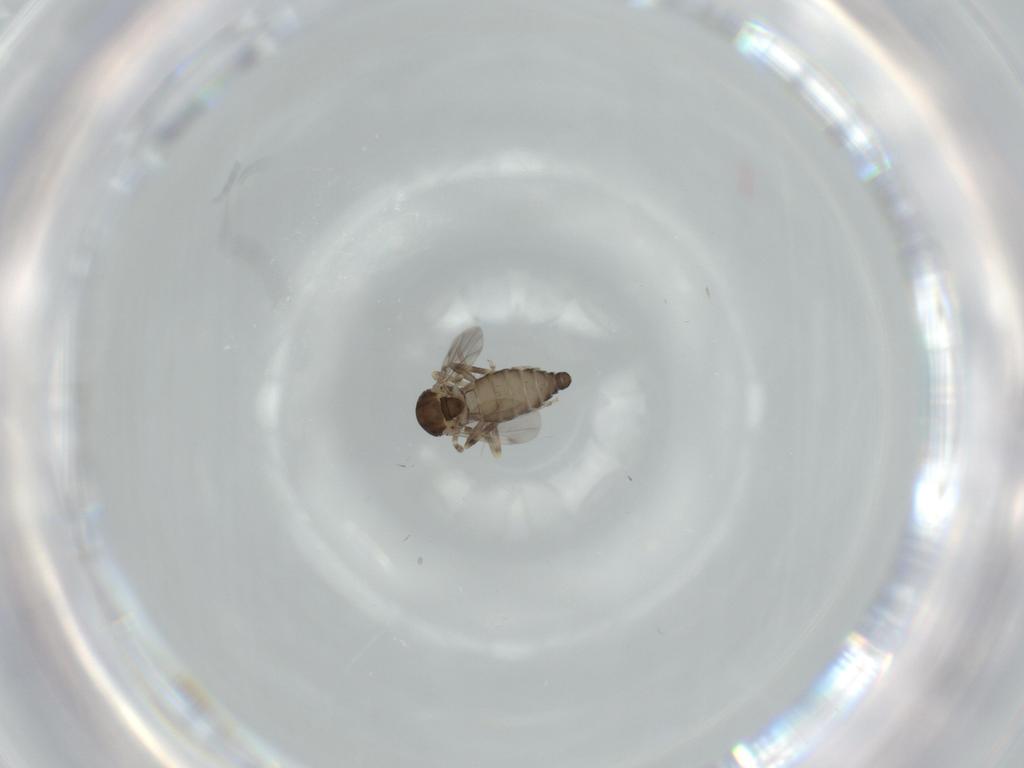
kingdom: Animalia
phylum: Arthropoda
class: Insecta
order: Diptera
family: Ceratopogonidae
